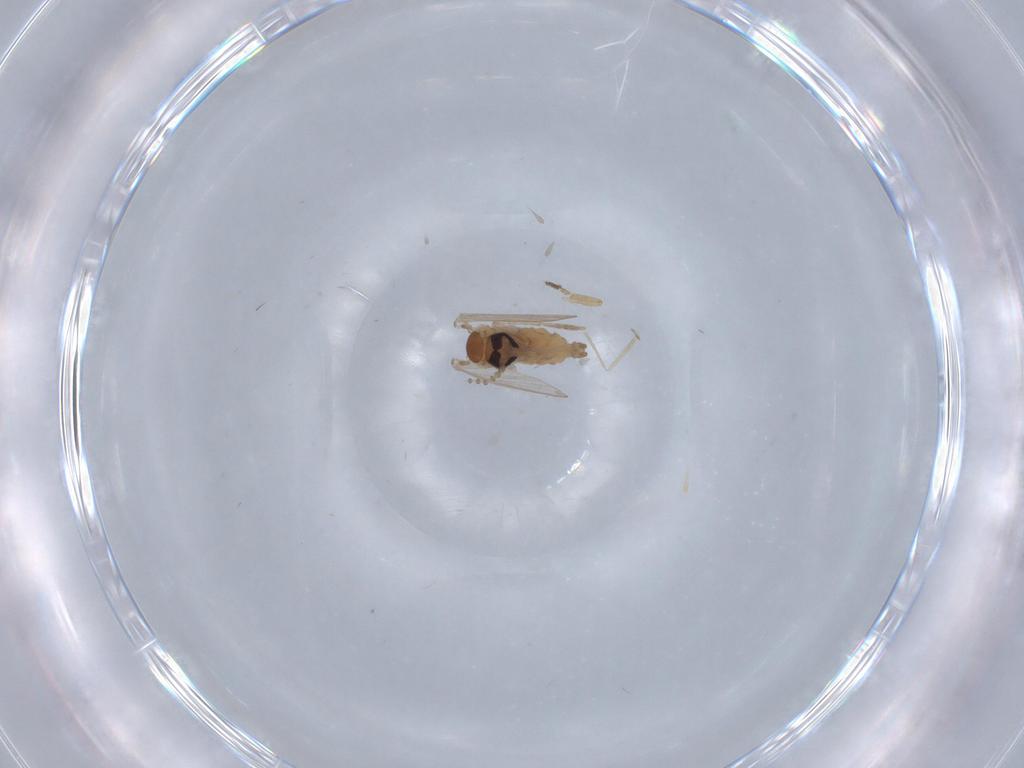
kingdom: Animalia
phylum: Arthropoda
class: Insecta
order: Diptera
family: Psychodidae
